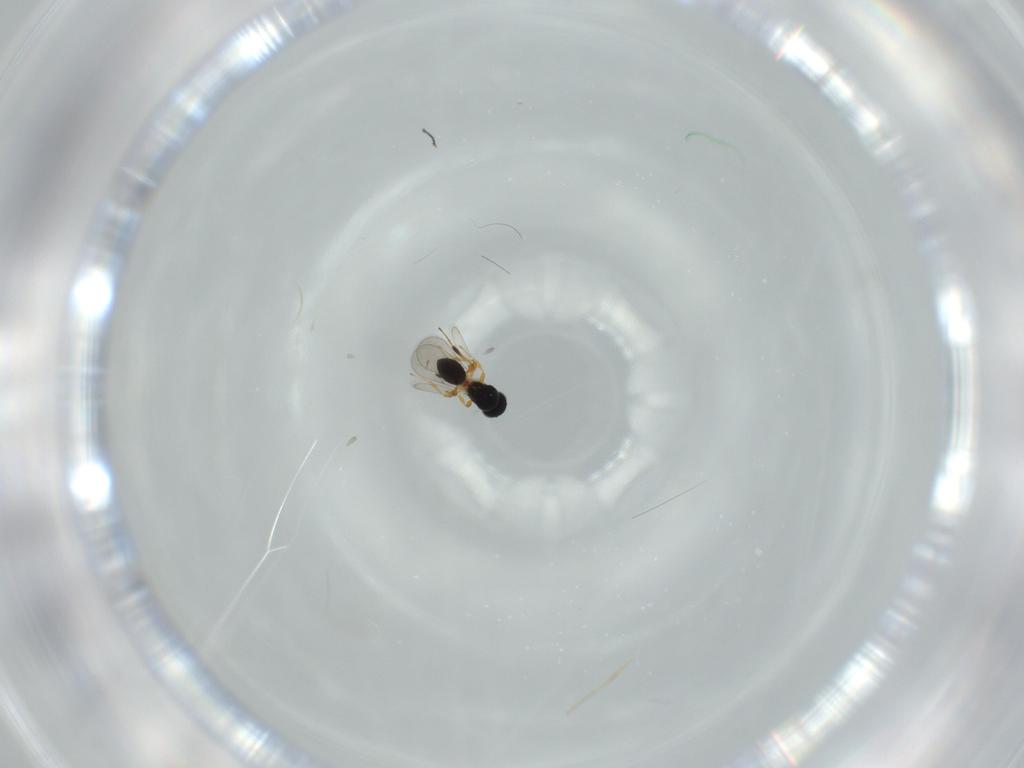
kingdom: Animalia
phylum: Arthropoda
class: Insecta
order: Hymenoptera
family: Platygastridae
